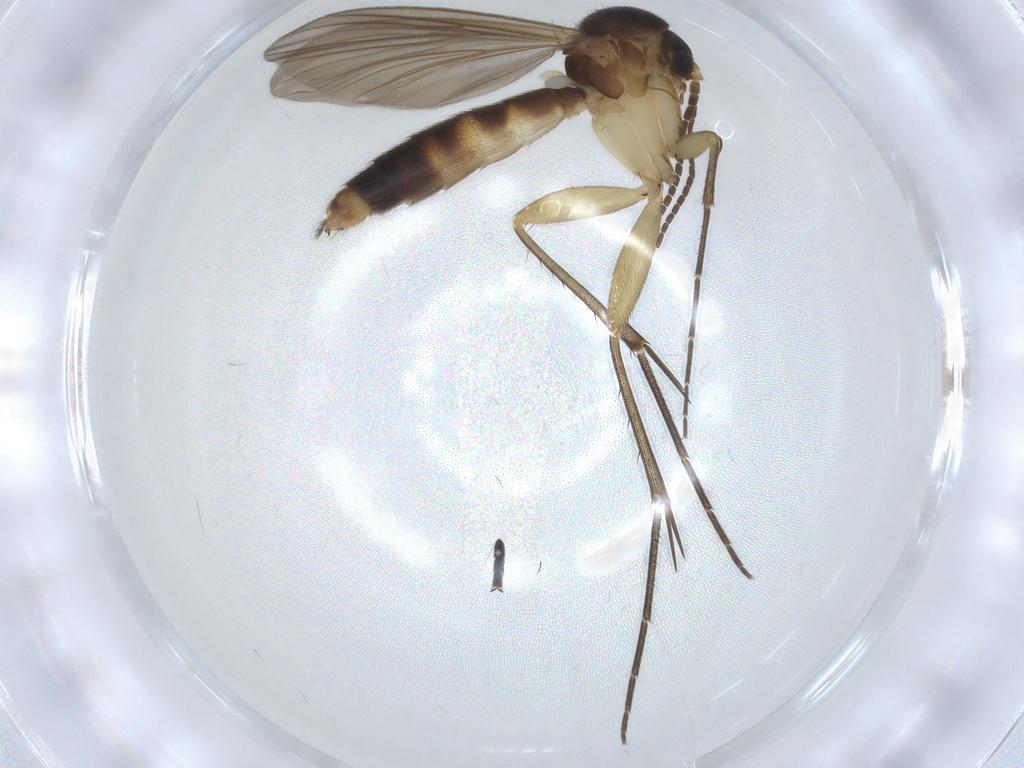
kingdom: Animalia
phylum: Arthropoda
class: Insecta
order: Diptera
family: Mycetophilidae
